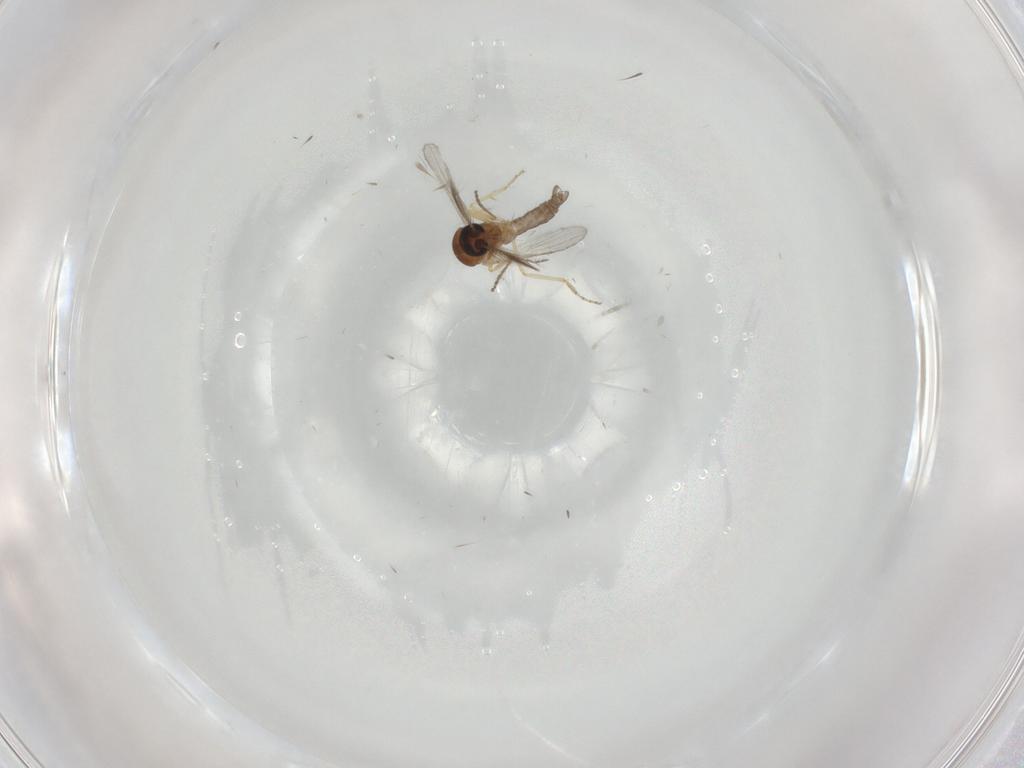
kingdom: Animalia
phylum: Arthropoda
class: Insecta
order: Diptera
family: Ceratopogonidae
